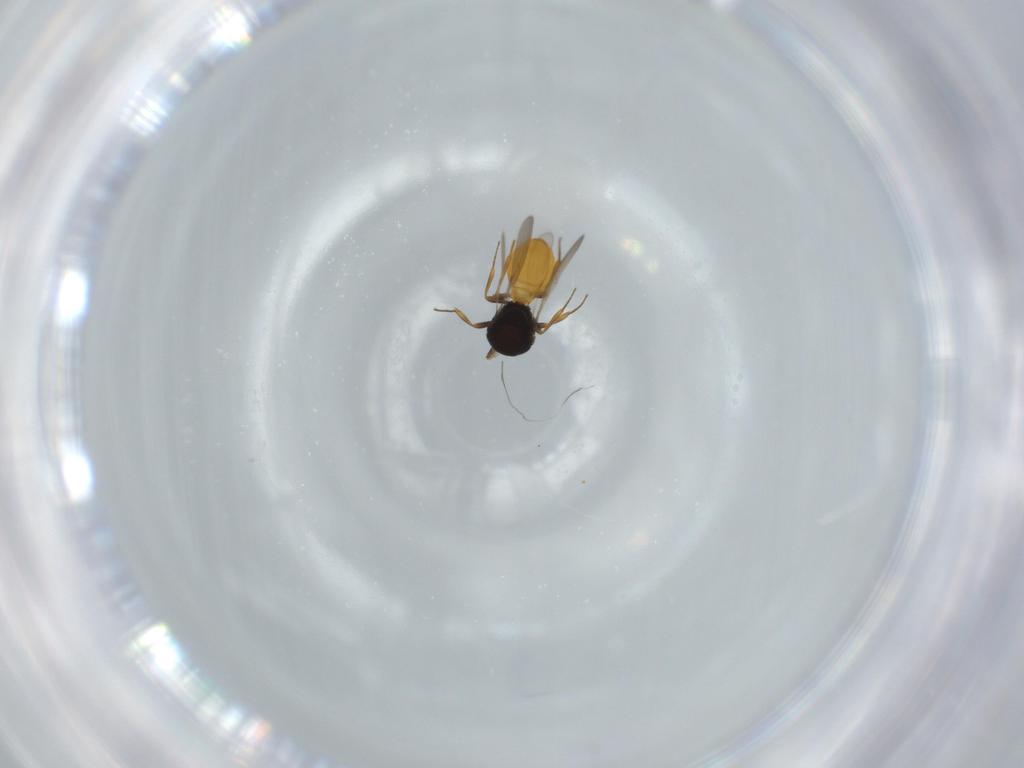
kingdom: Animalia
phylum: Arthropoda
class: Insecta
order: Hymenoptera
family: Scelionidae
